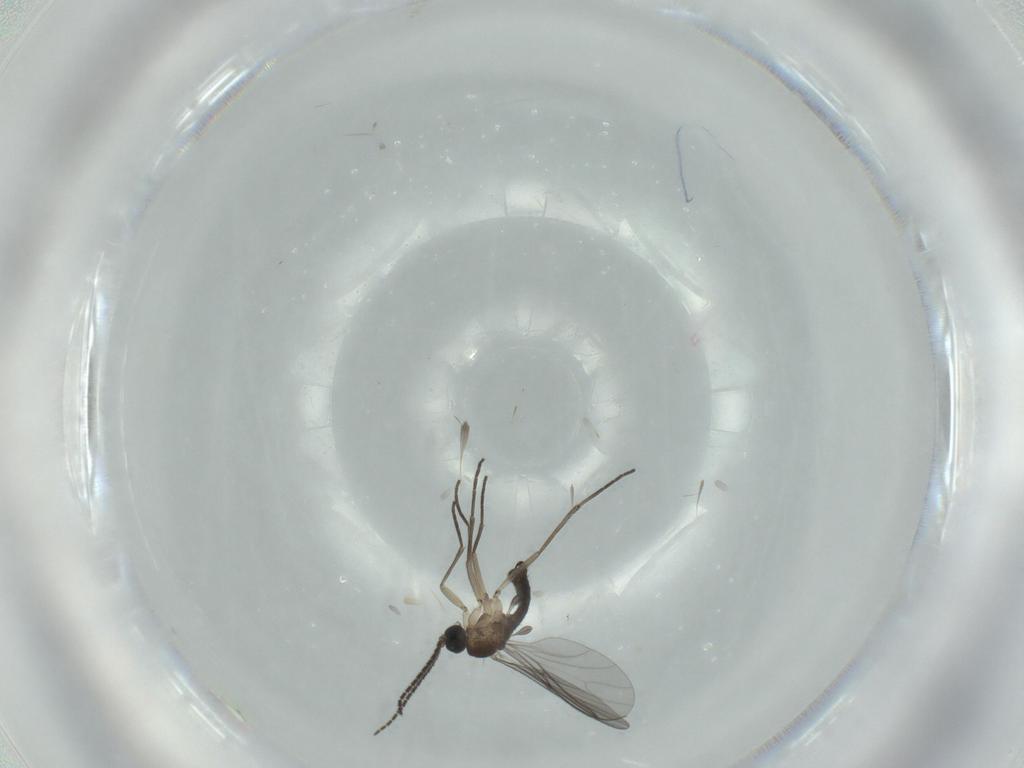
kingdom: Animalia
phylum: Arthropoda
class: Insecta
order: Diptera
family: Sciaridae
